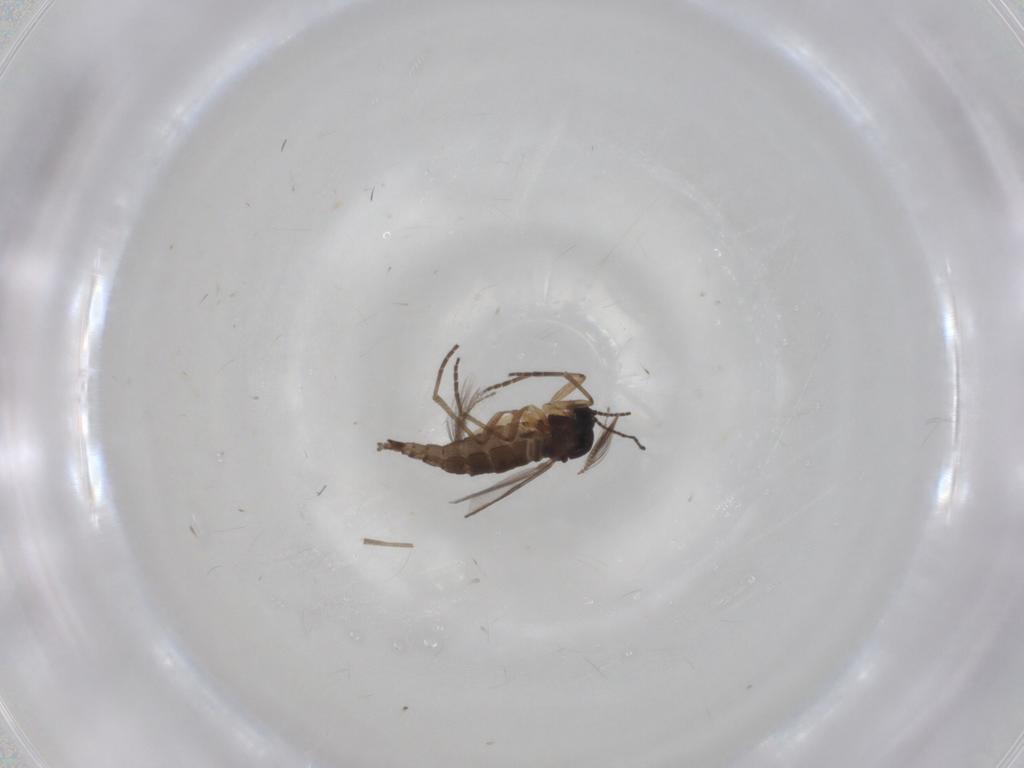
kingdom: Animalia
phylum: Arthropoda
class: Insecta
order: Diptera
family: Ceratopogonidae
